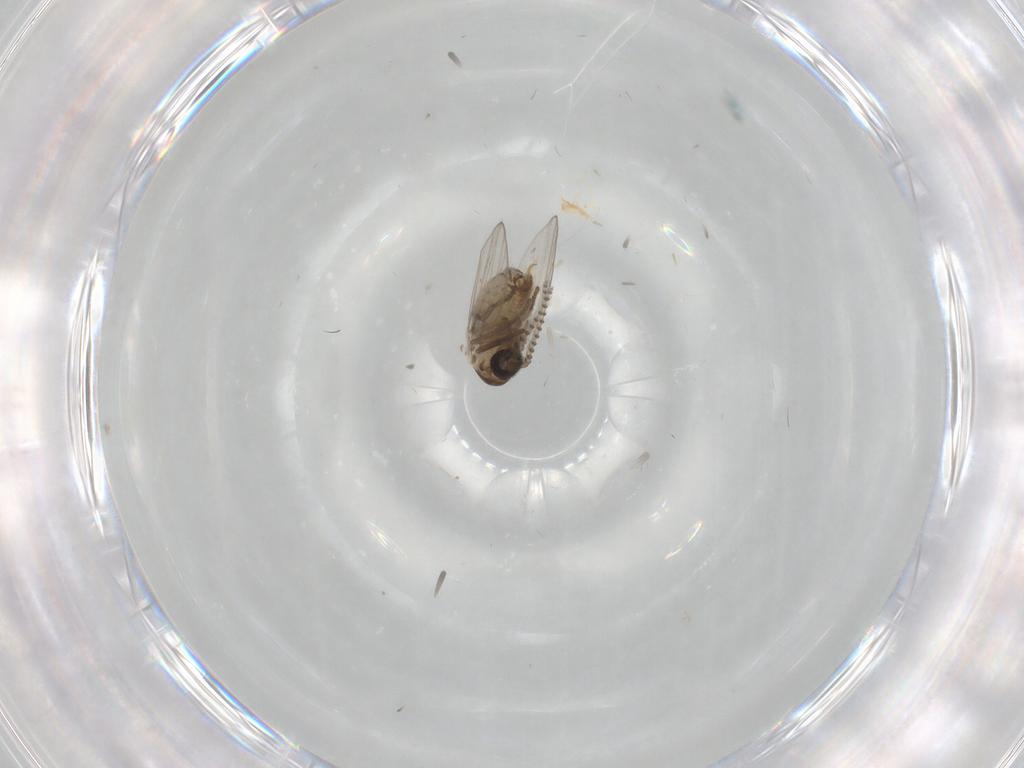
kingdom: Animalia
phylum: Arthropoda
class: Insecta
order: Diptera
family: Psychodidae
